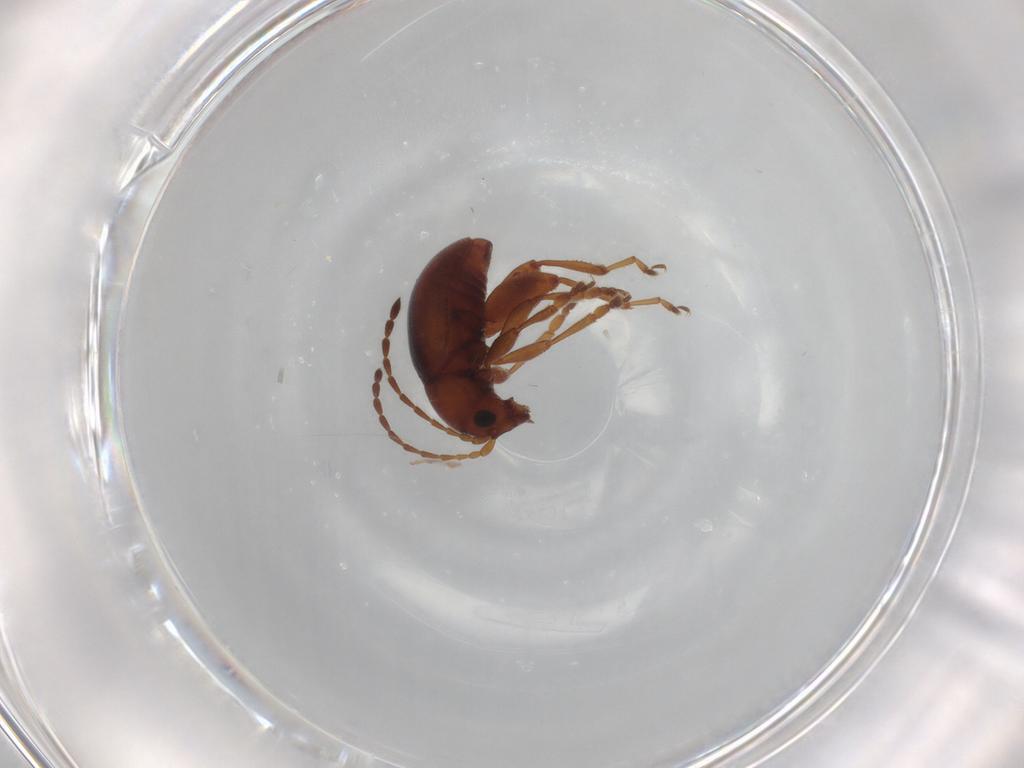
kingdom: Animalia
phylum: Arthropoda
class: Insecta
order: Coleoptera
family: Chrysomelidae
